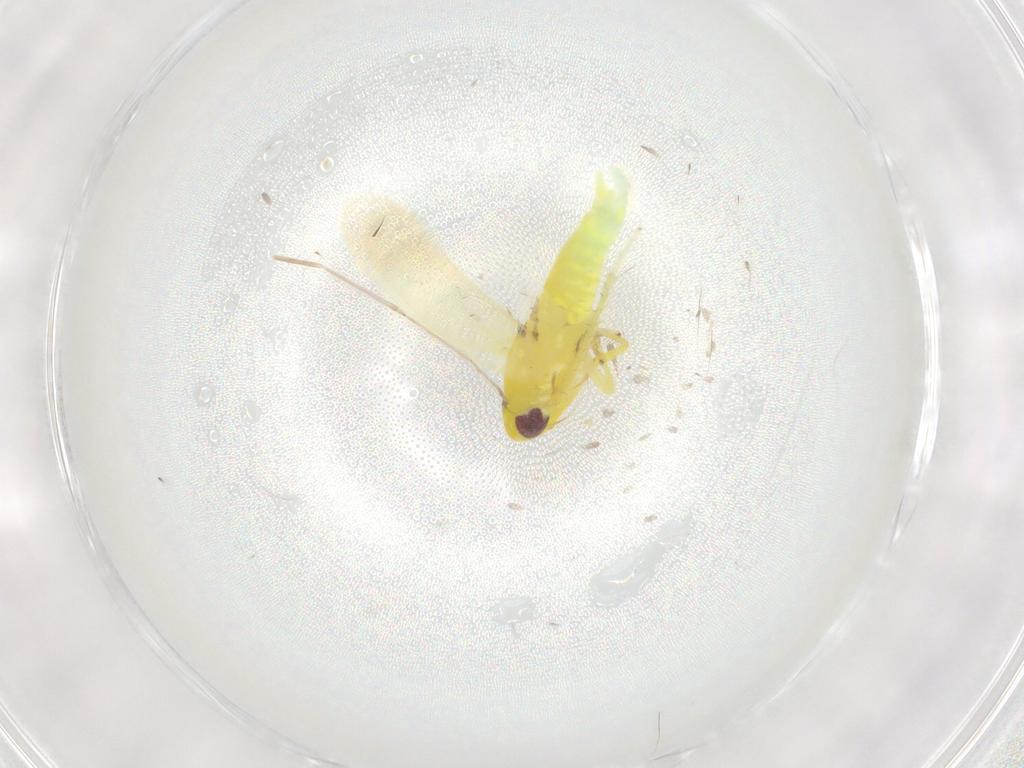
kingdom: Animalia
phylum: Arthropoda
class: Insecta
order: Hemiptera
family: Cicadellidae
